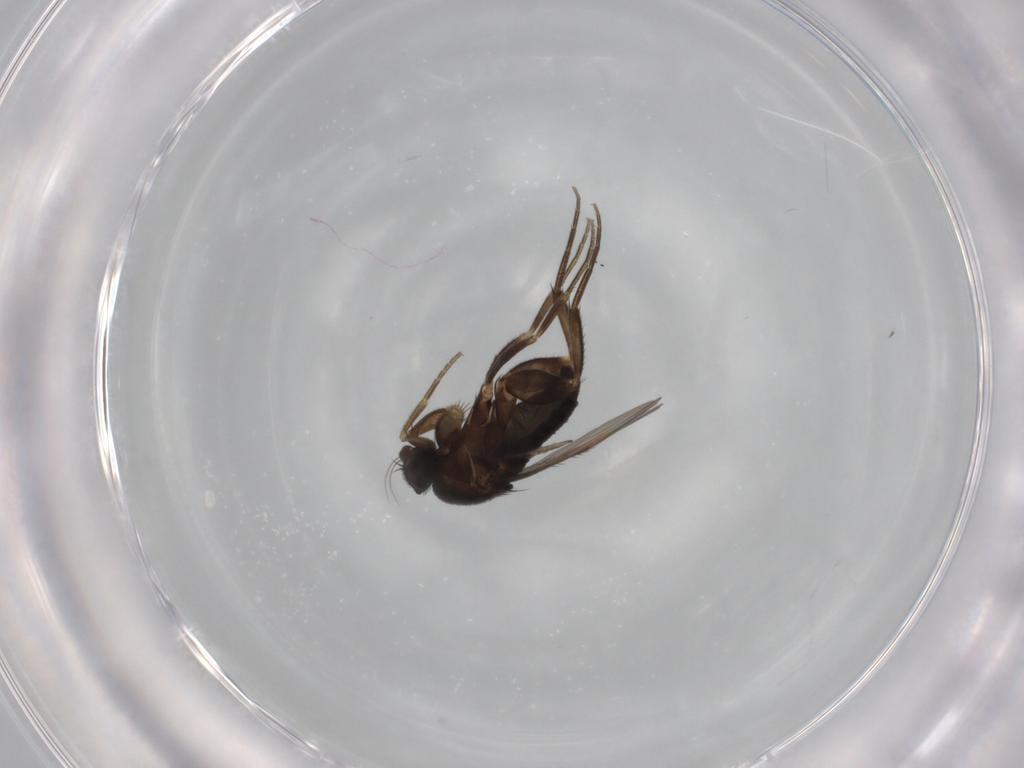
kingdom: Animalia
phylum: Arthropoda
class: Insecta
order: Diptera
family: Phoridae
